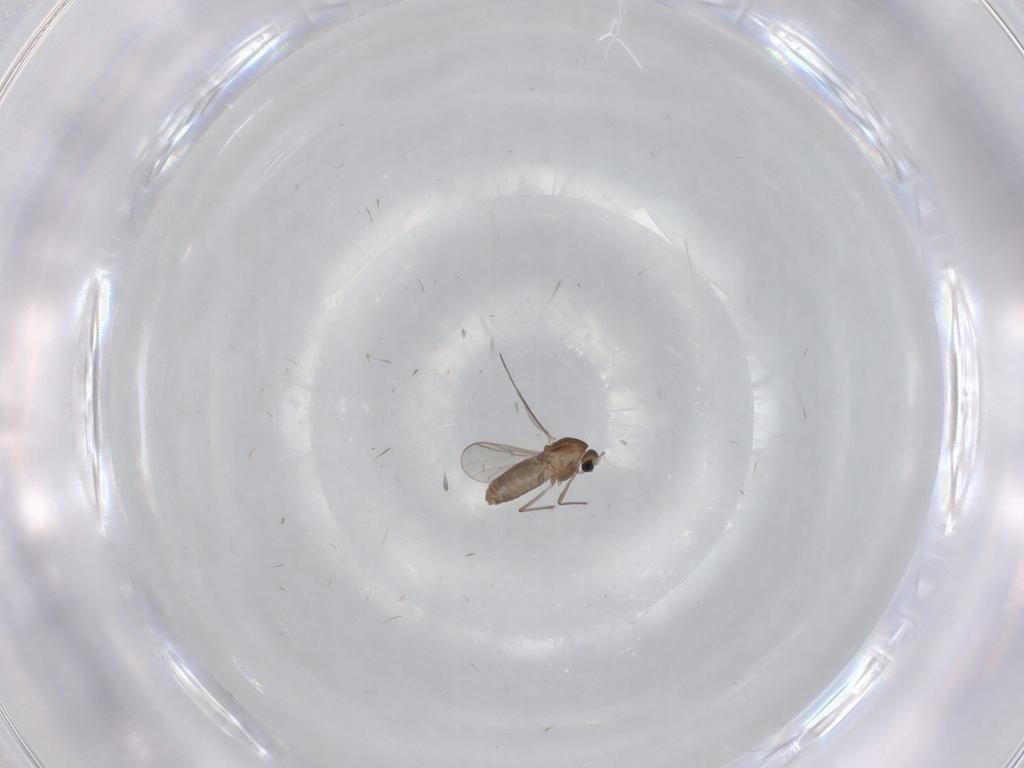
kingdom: Animalia
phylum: Arthropoda
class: Insecta
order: Diptera
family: Chironomidae
